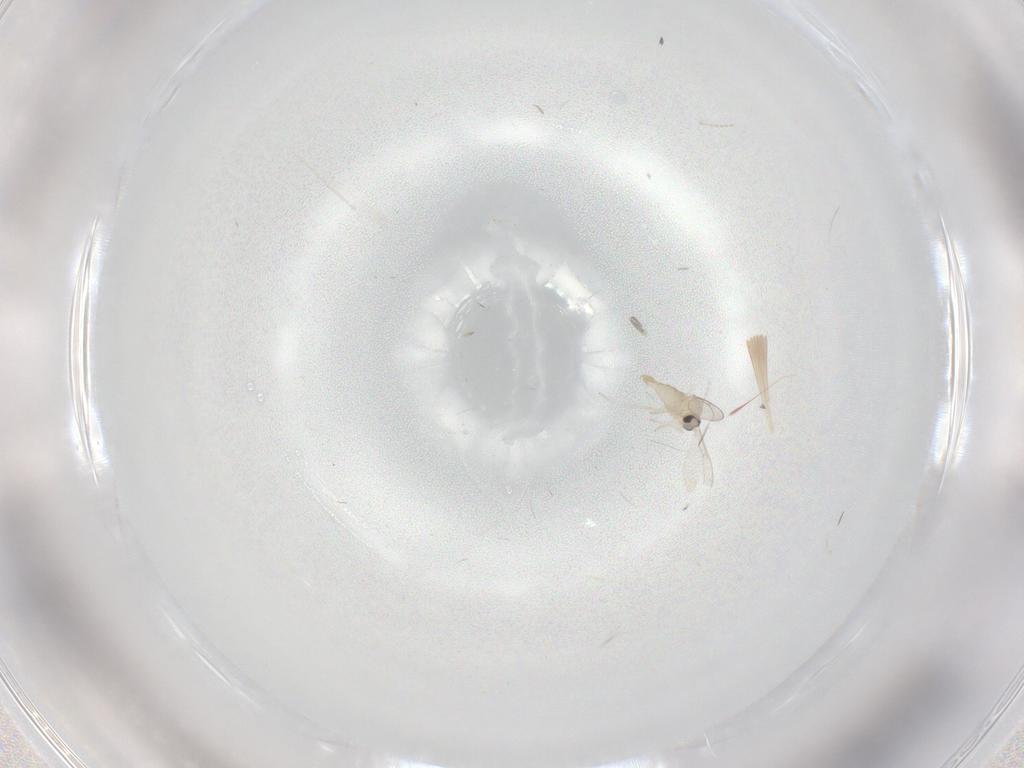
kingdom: Animalia
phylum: Arthropoda
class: Insecta
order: Diptera
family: Cecidomyiidae
